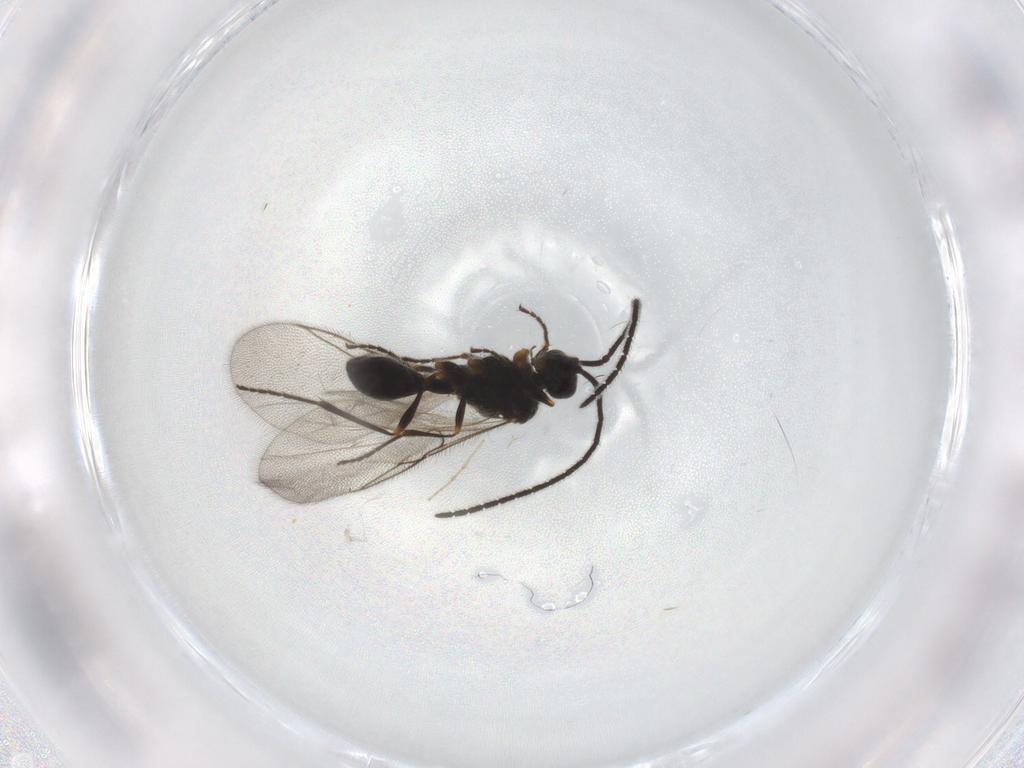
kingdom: Animalia
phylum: Arthropoda
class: Insecta
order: Hymenoptera
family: Diapriidae
